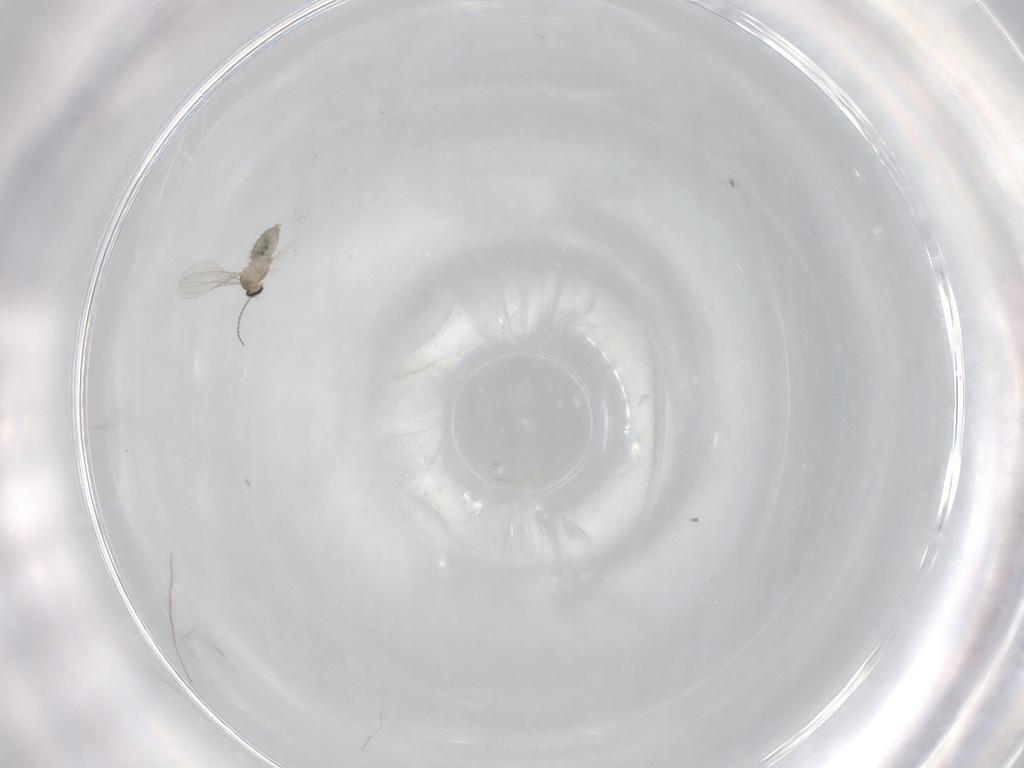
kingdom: Animalia
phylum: Arthropoda
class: Insecta
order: Diptera
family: Cecidomyiidae
